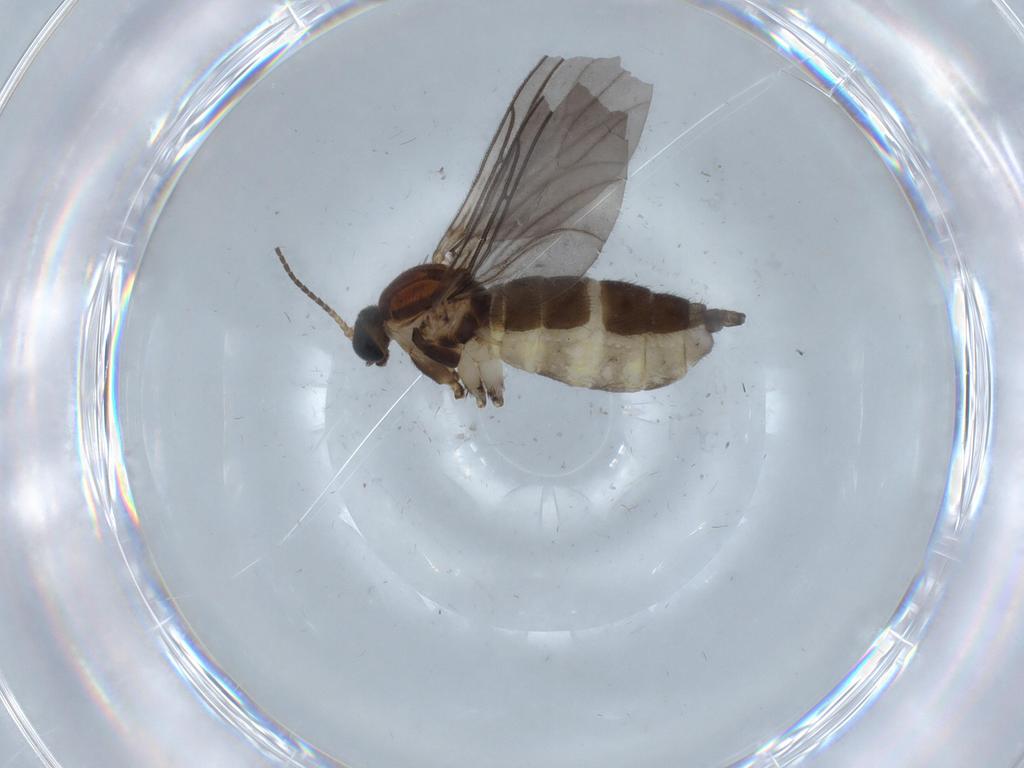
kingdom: Animalia
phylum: Arthropoda
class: Insecta
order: Diptera
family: Sciaridae
